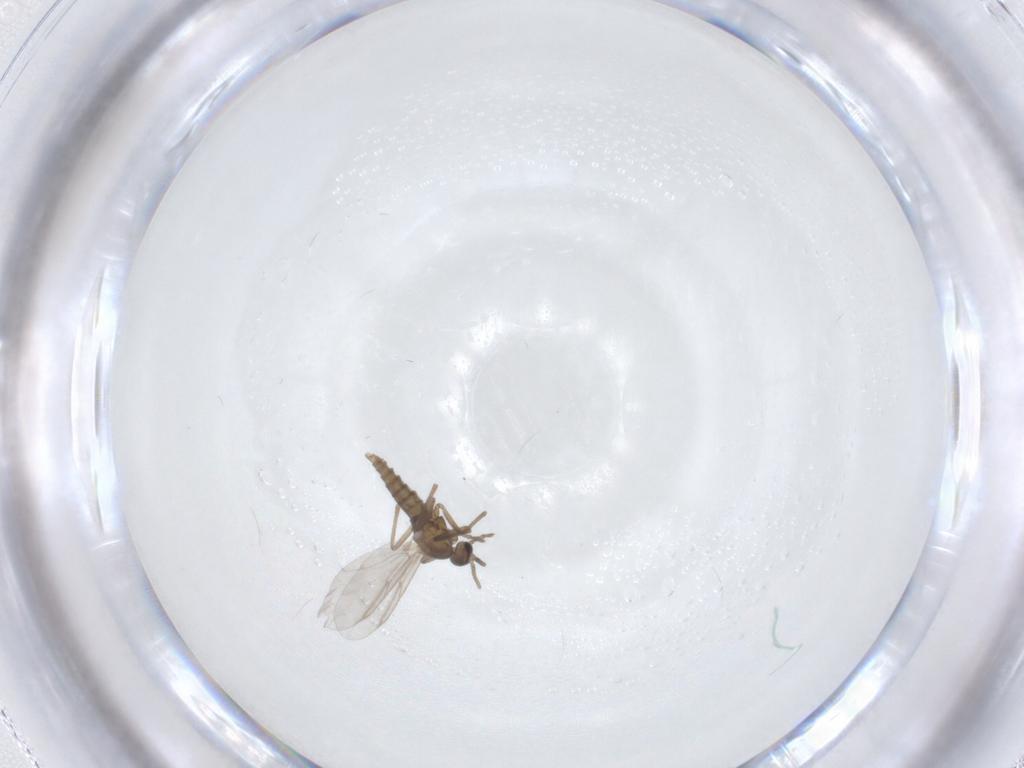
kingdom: Animalia
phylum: Arthropoda
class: Insecta
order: Diptera
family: Cecidomyiidae
